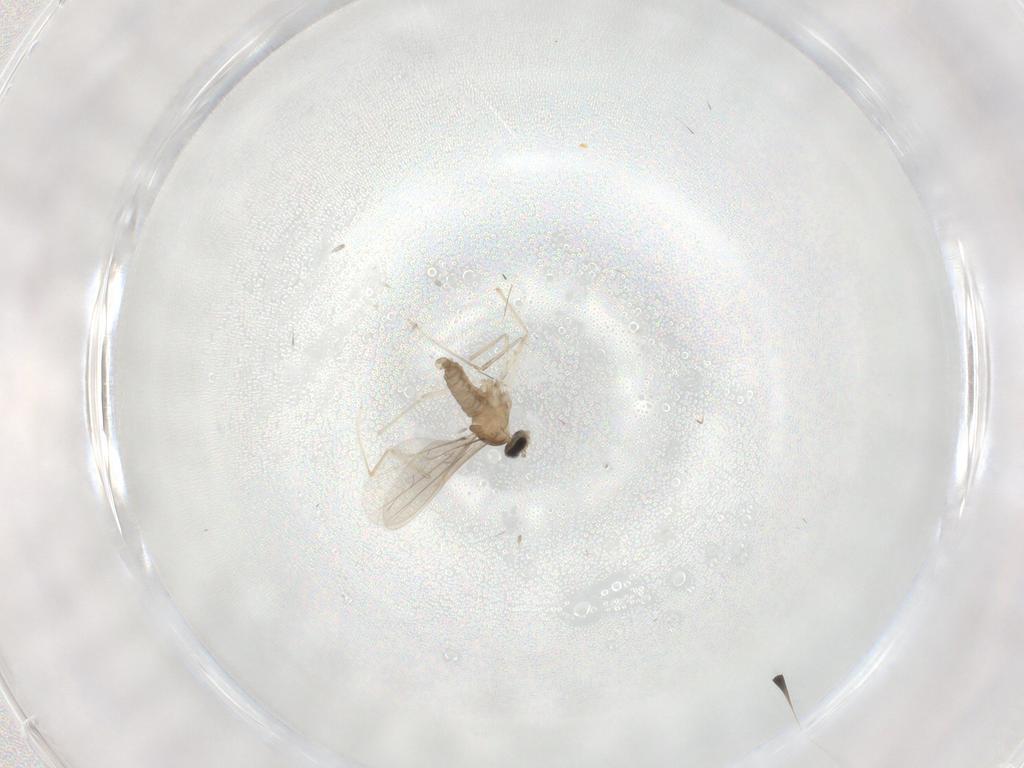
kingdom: Animalia
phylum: Arthropoda
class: Insecta
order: Diptera
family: Cecidomyiidae
